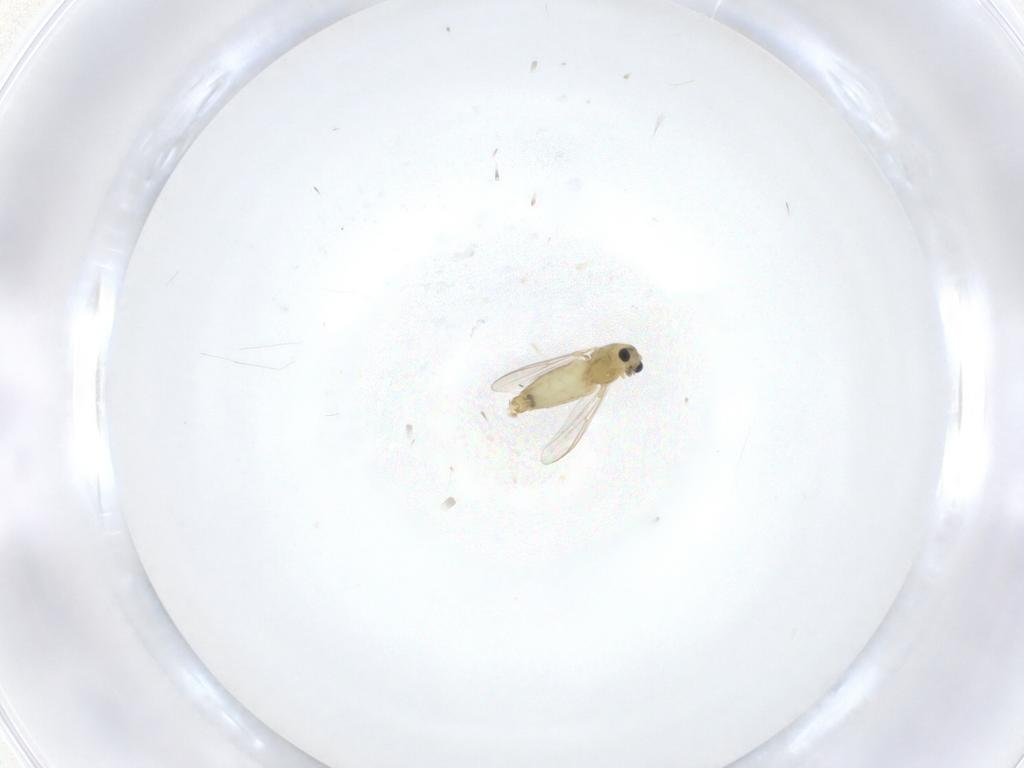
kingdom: Animalia
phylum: Arthropoda
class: Insecta
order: Diptera
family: Chironomidae
